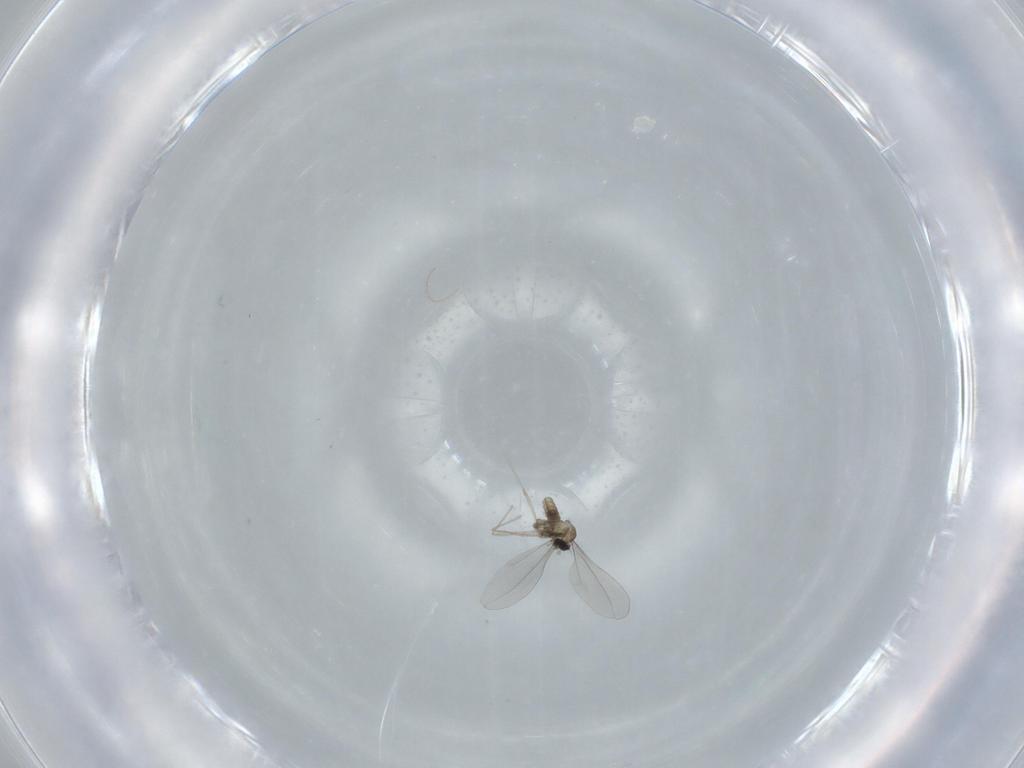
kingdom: Animalia
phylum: Arthropoda
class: Insecta
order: Diptera
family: Cecidomyiidae
